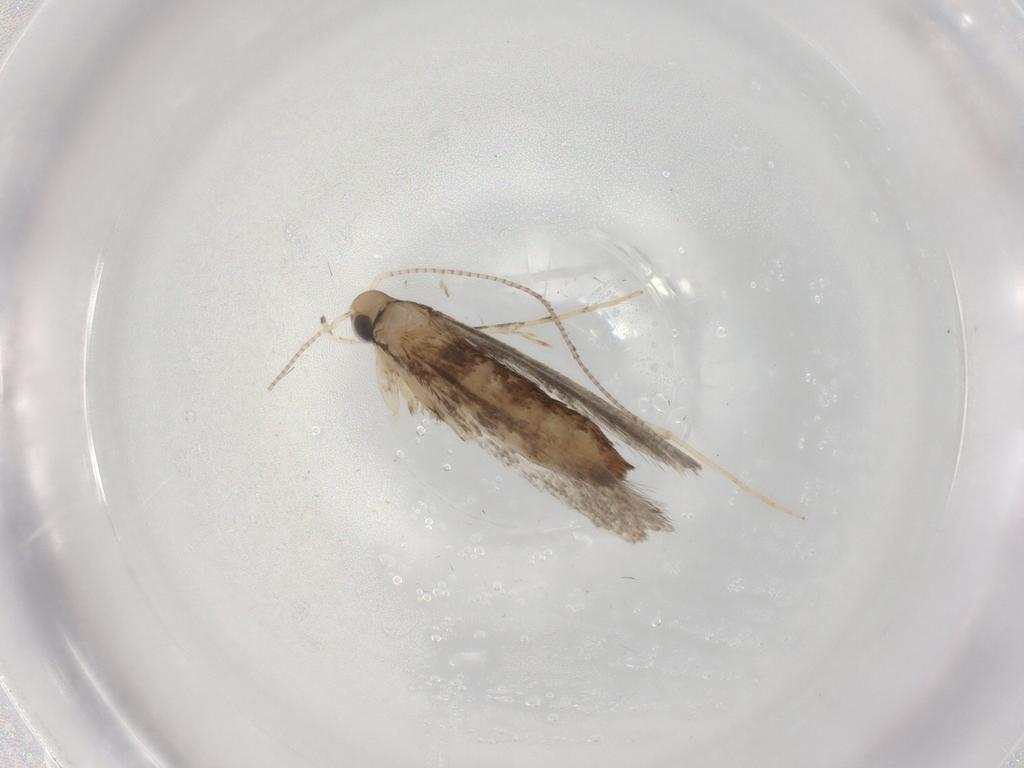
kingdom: Animalia
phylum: Arthropoda
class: Insecta
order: Lepidoptera
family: Gracillariidae
